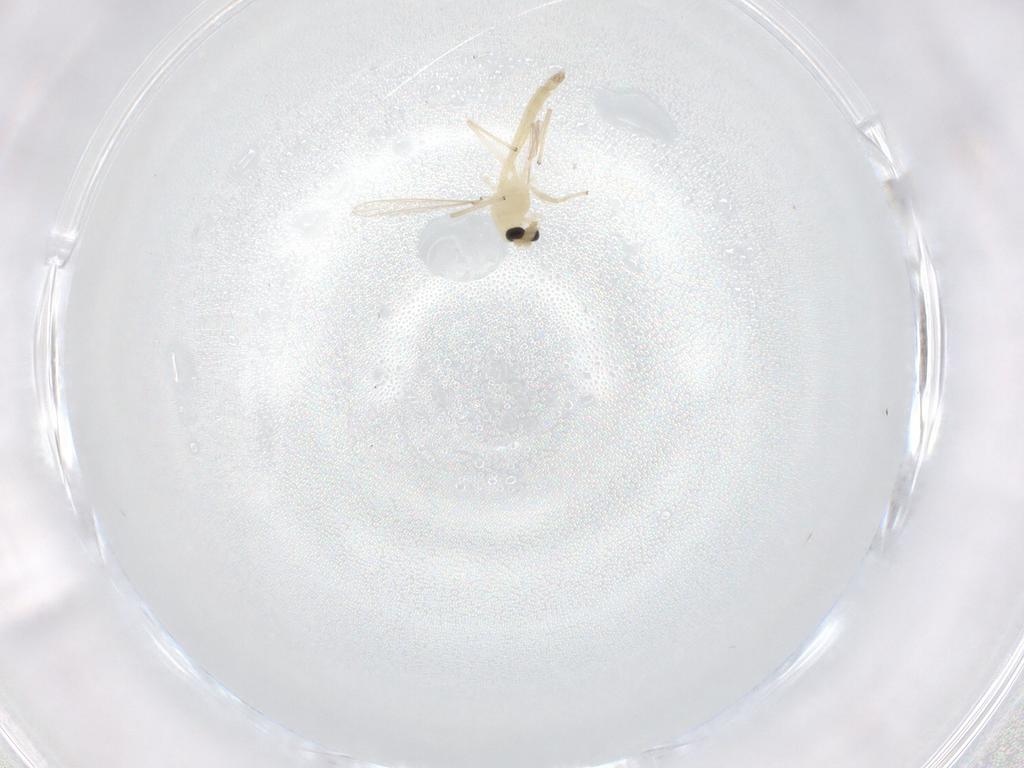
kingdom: Animalia
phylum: Arthropoda
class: Insecta
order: Diptera
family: Chironomidae
